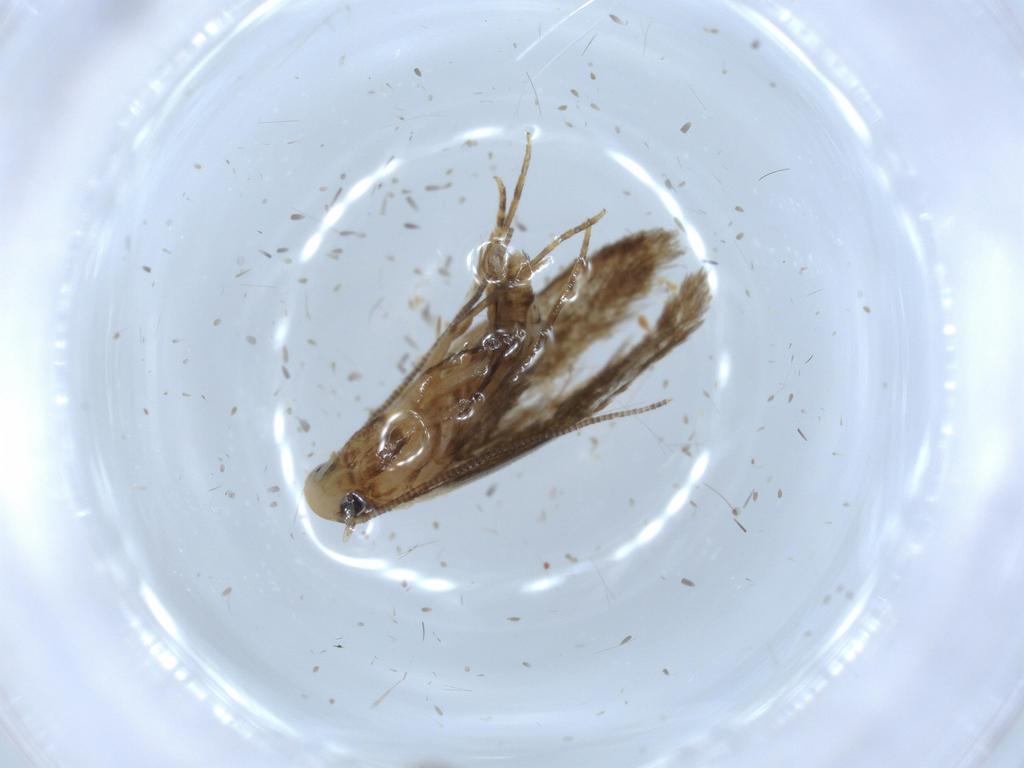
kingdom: Animalia
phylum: Arthropoda
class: Insecta
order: Lepidoptera
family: Tineidae
